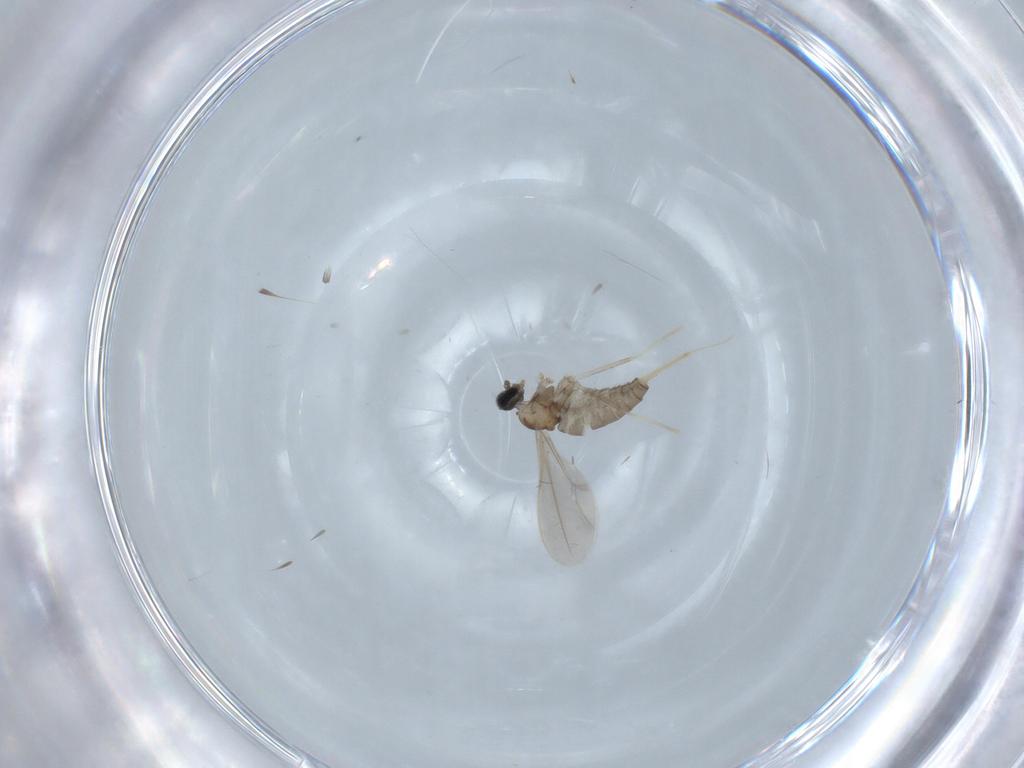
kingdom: Animalia
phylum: Arthropoda
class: Insecta
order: Diptera
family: Cecidomyiidae
